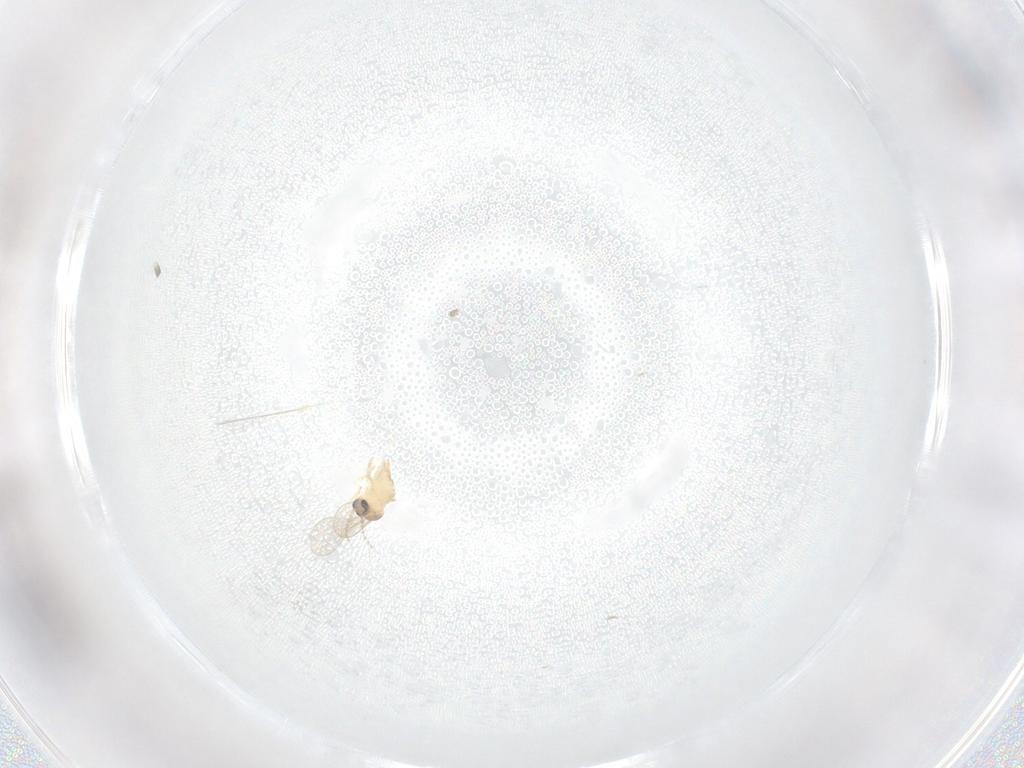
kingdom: Animalia
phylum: Arthropoda
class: Insecta
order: Diptera
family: Cecidomyiidae
